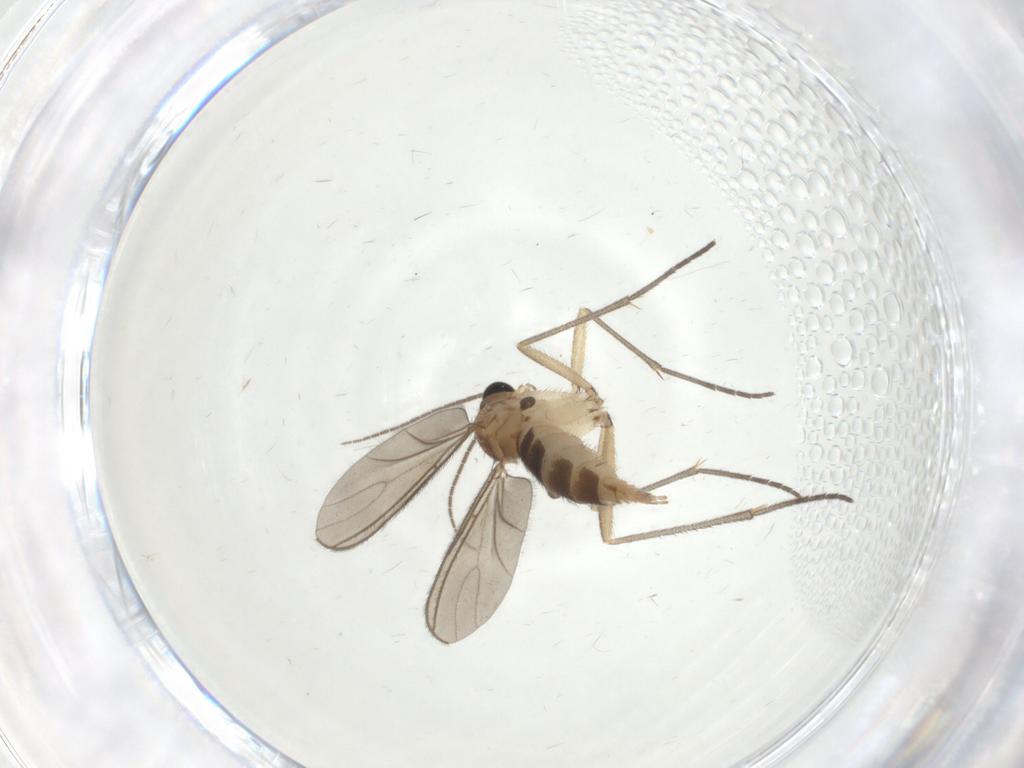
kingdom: Animalia
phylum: Arthropoda
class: Insecta
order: Diptera
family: Sciaridae
